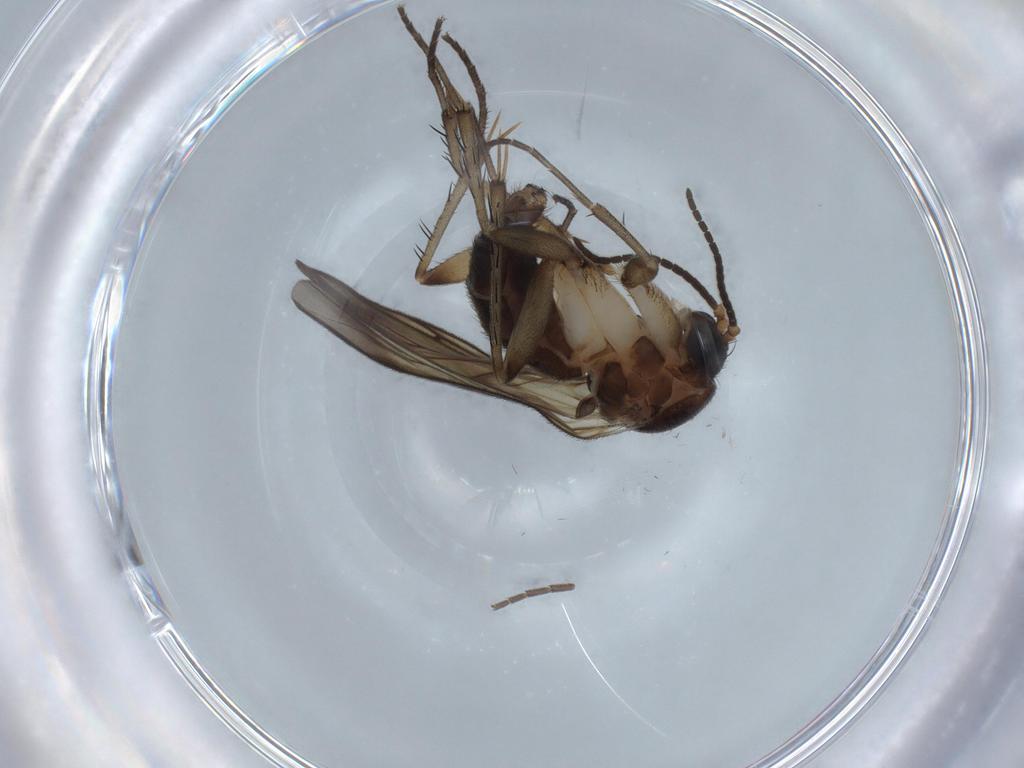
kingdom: Animalia
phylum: Arthropoda
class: Insecta
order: Diptera
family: Mycetophilidae
